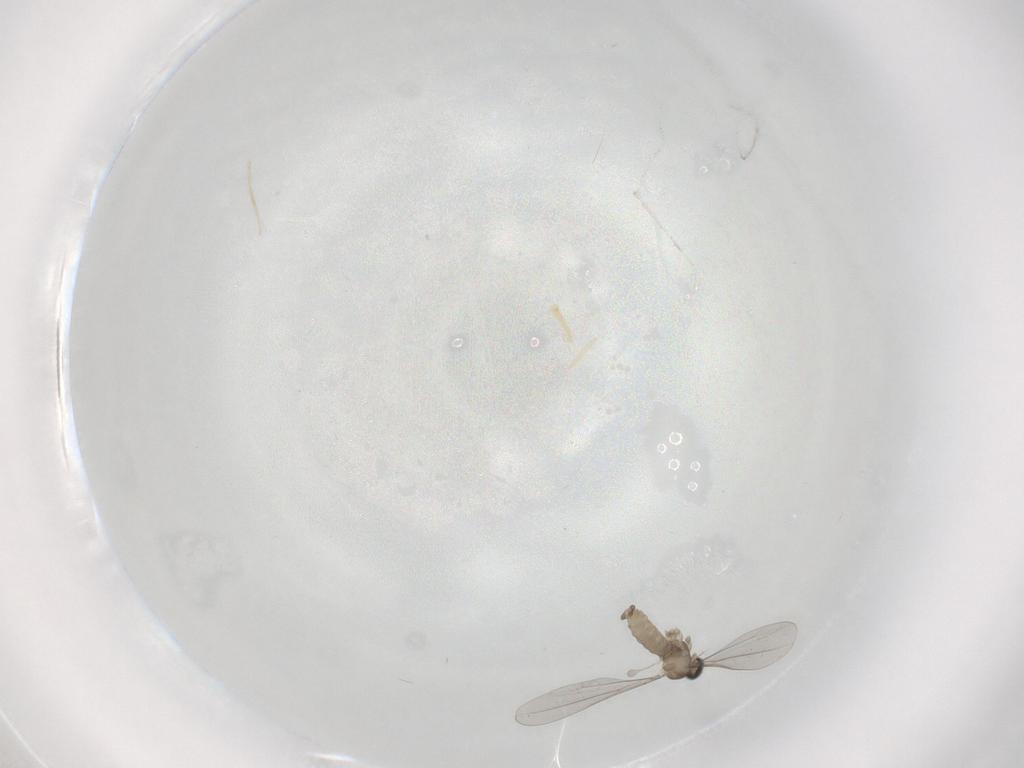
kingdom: Animalia
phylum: Arthropoda
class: Insecta
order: Diptera
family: Cecidomyiidae
